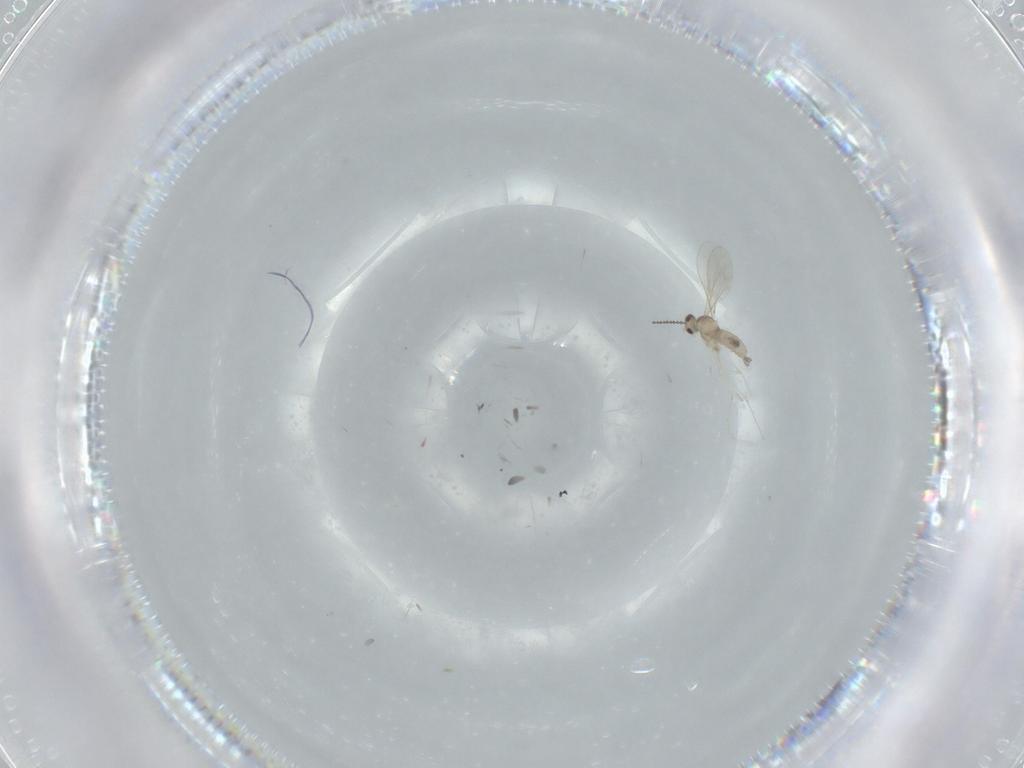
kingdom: Animalia
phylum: Arthropoda
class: Insecta
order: Diptera
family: Cecidomyiidae
